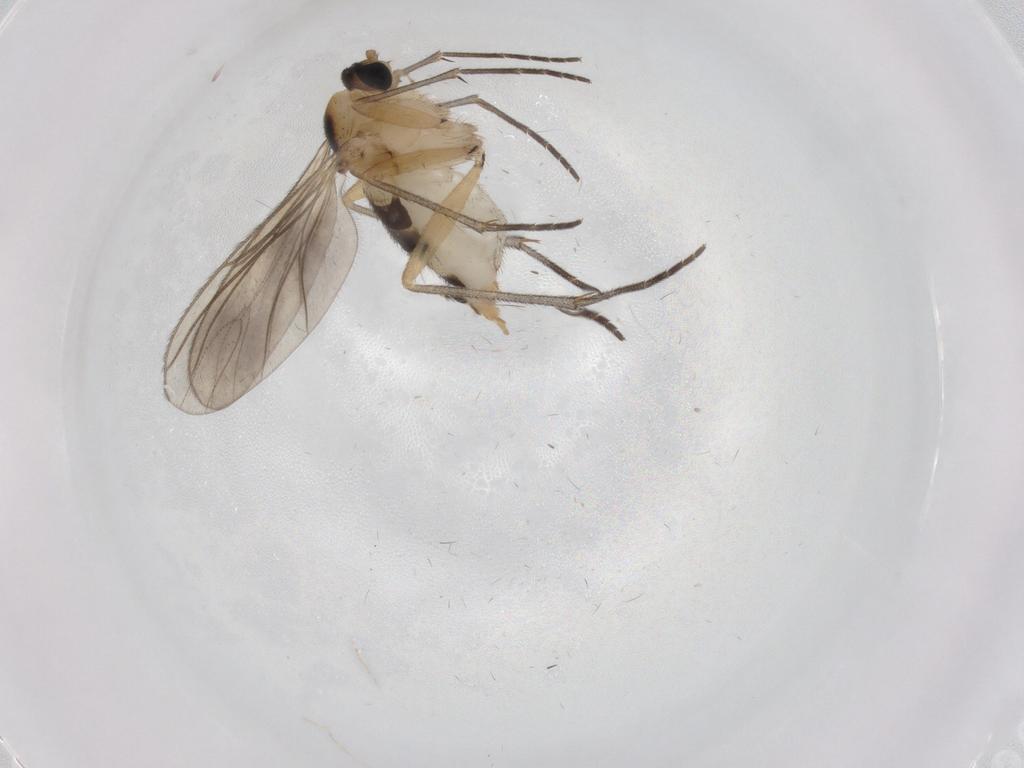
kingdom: Animalia
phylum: Arthropoda
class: Insecta
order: Diptera
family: Sciaridae
